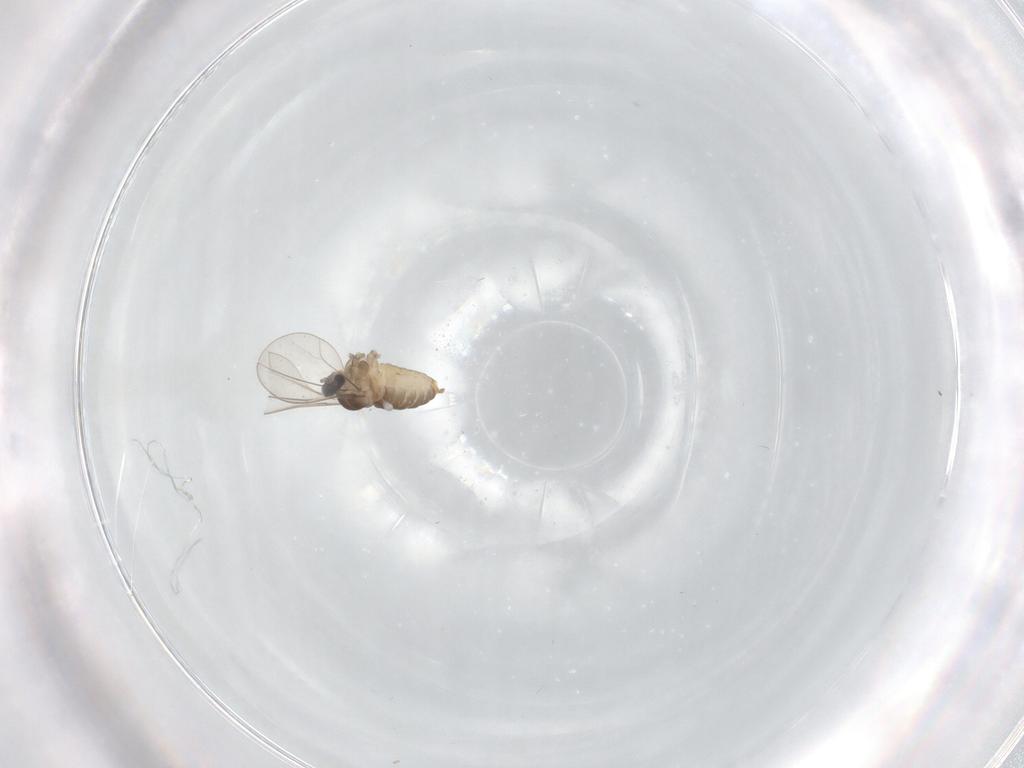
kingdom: Animalia
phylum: Arthropoda
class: Insecta
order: Diptera
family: Cecidomyiidae
